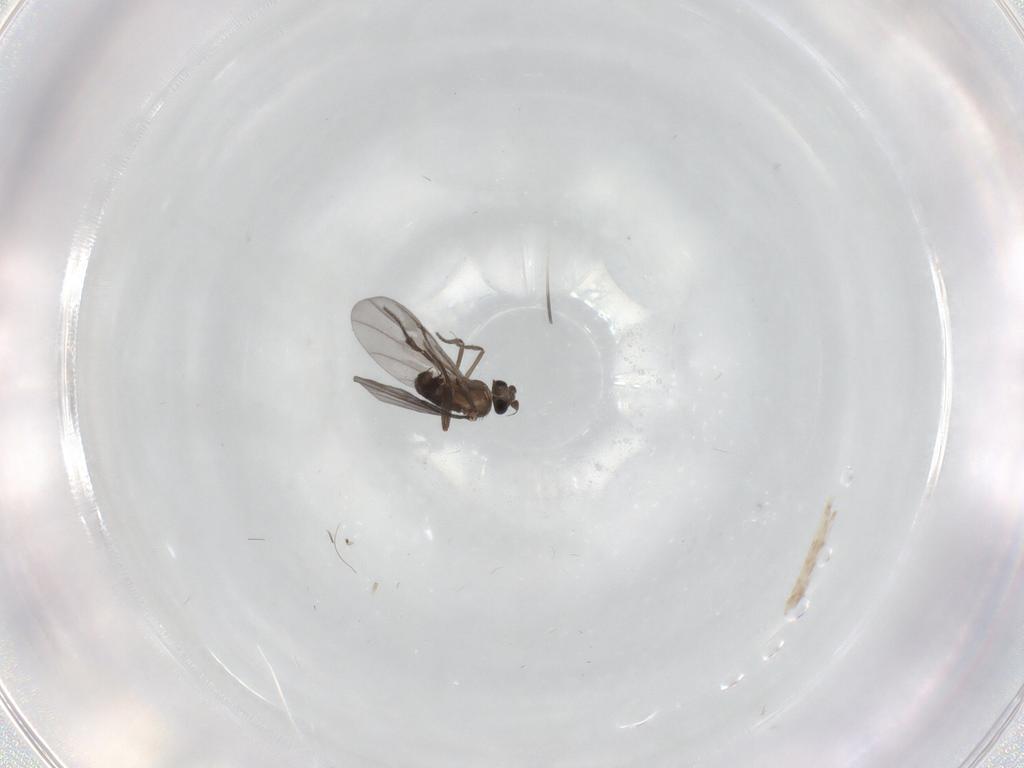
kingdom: Animalia
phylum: Arthropoda
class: Insecta
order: Diptera
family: Phoridae
